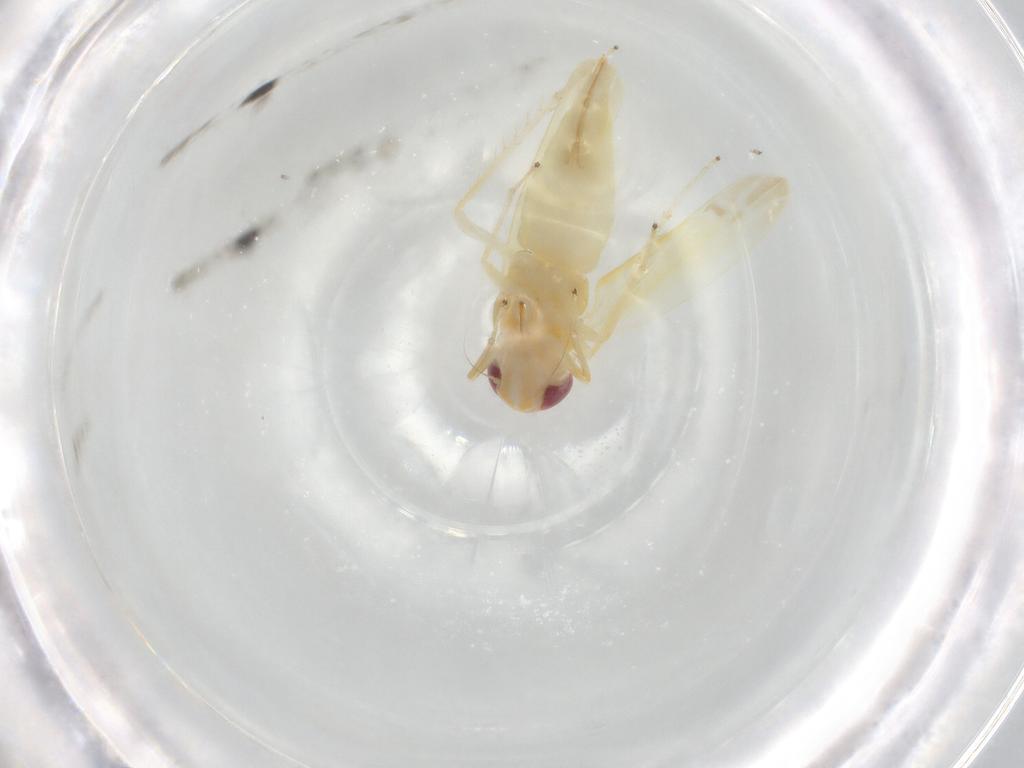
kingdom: Animalia
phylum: Arthropoda
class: Insecta
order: Hemiptera
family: Cicadellidae
